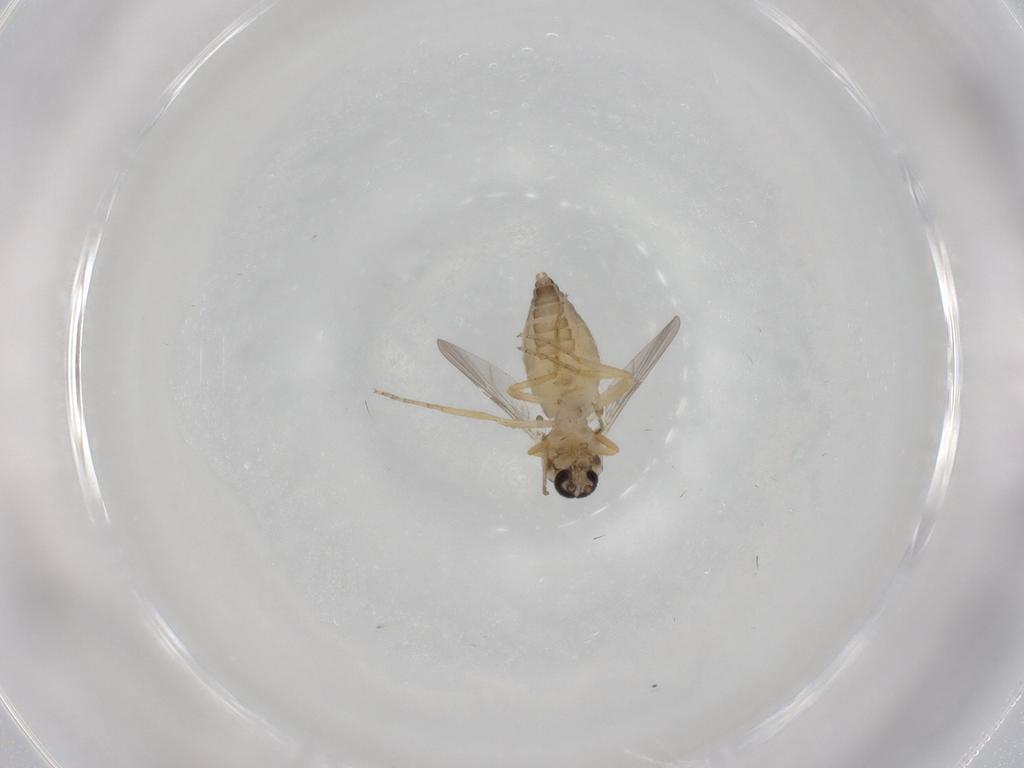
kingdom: Animalia
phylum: Arthropoda
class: Insecta
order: Diptera
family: Ceratopogonidae
